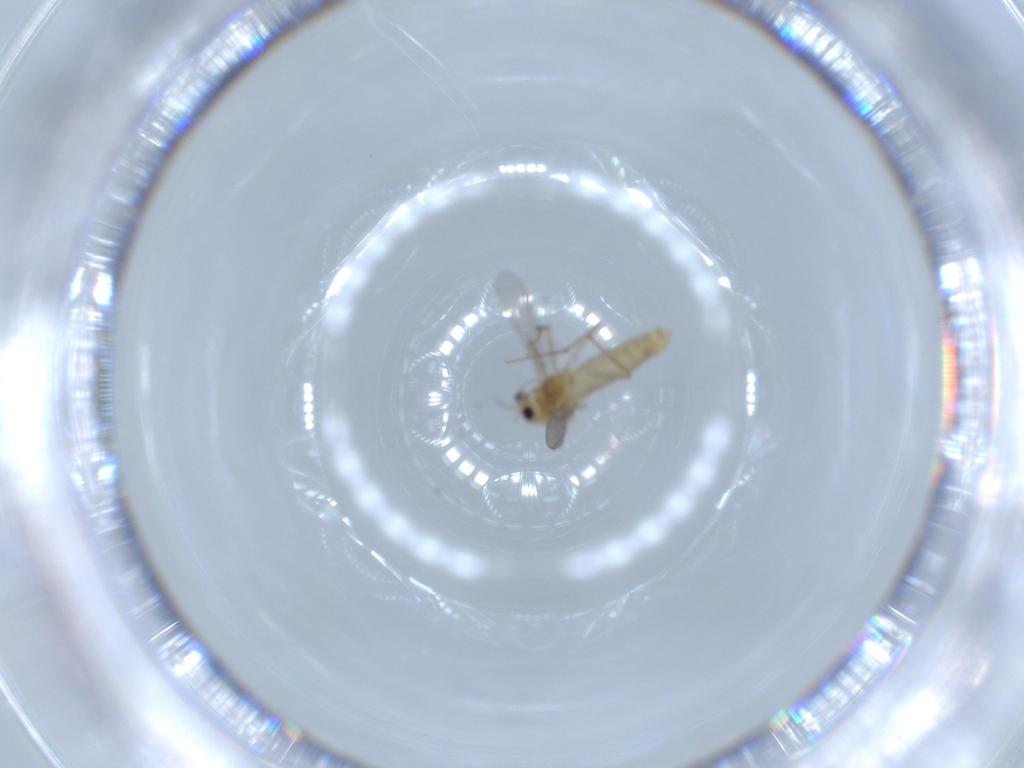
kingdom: Animalia
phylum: Arthropoda
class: Insecta
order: Diptera
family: Chironomidae
